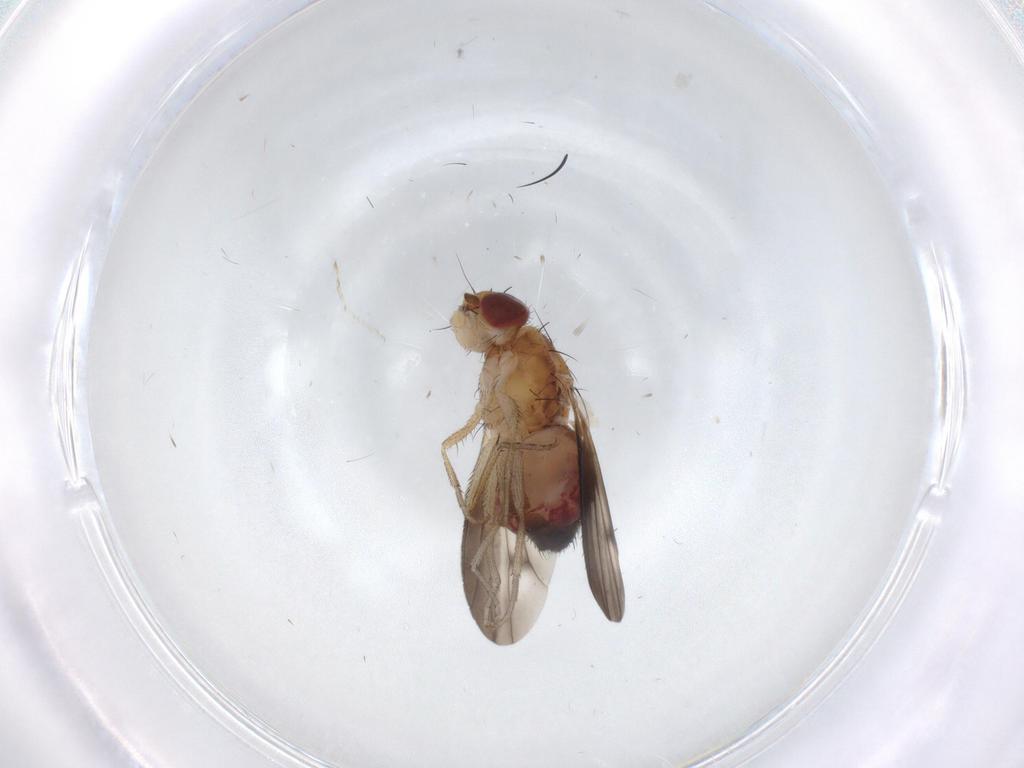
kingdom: Animalia
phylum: Arthropoda
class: Insecta
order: Diptera
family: Heleomyzidae
